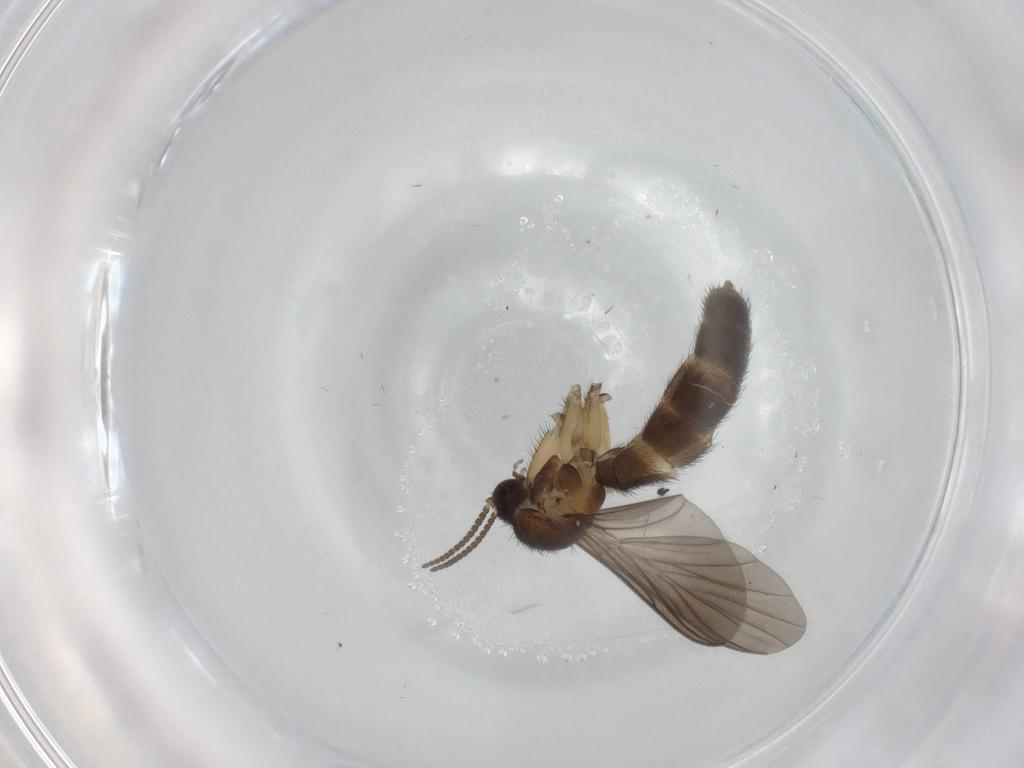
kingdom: Animalia
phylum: Arthropoda
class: Insecta
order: Diptera
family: Keroplatidae
